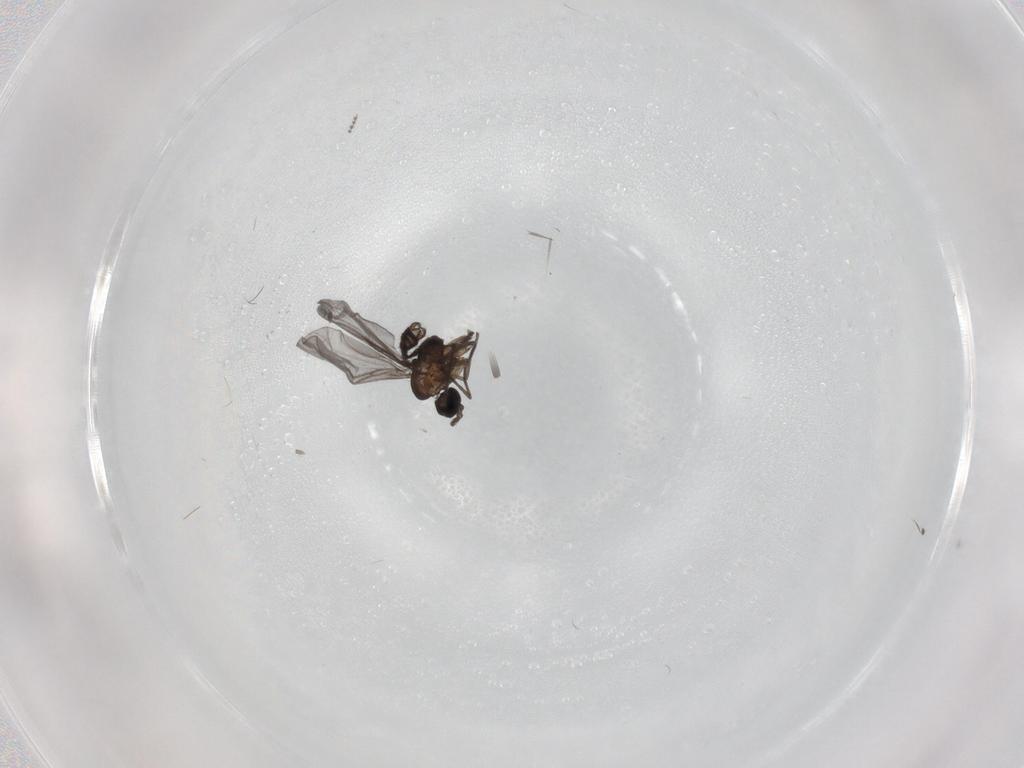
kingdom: Animalia
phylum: Arthropoda
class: Insecta
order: Diptera
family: Chironomidae
